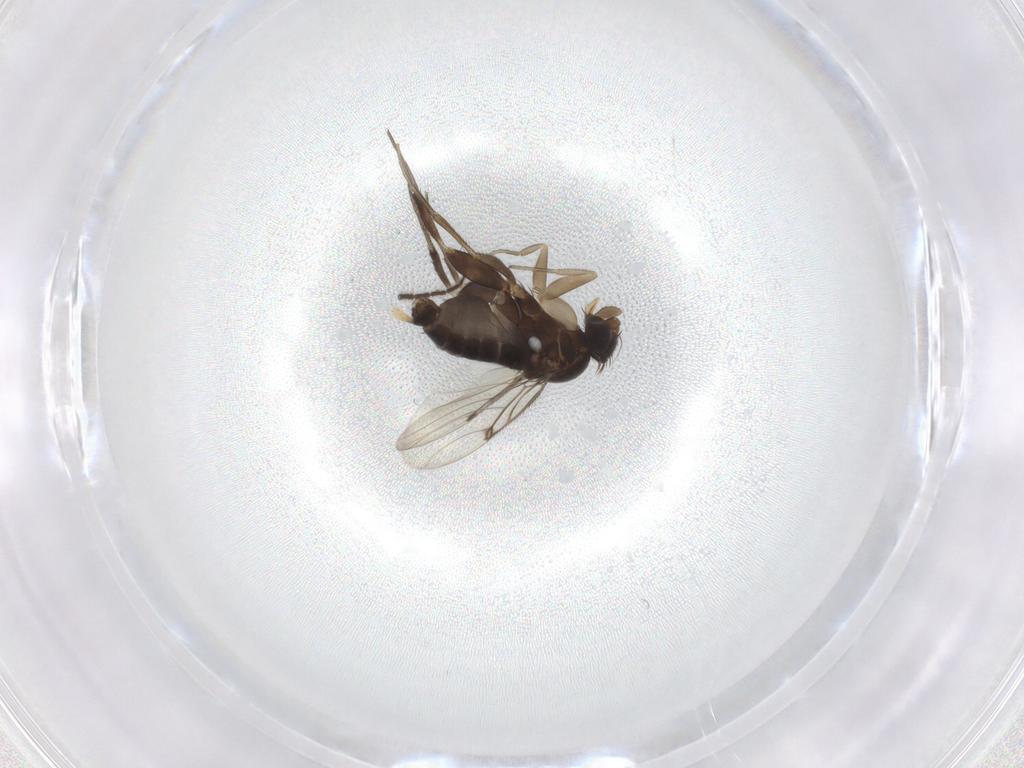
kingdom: Animalia
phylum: Arthropoda
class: Insecta
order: Diptera
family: Phoridae
